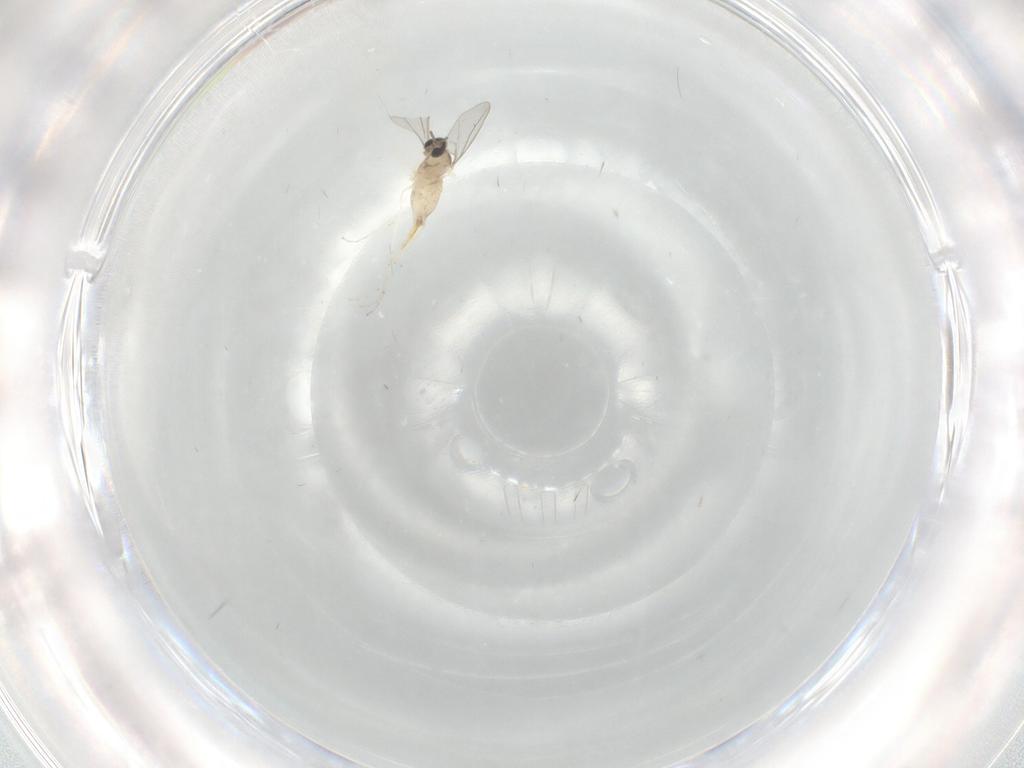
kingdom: Animalia
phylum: Arthropoda
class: Insecta
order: Diptera
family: Cecidomyiidae
